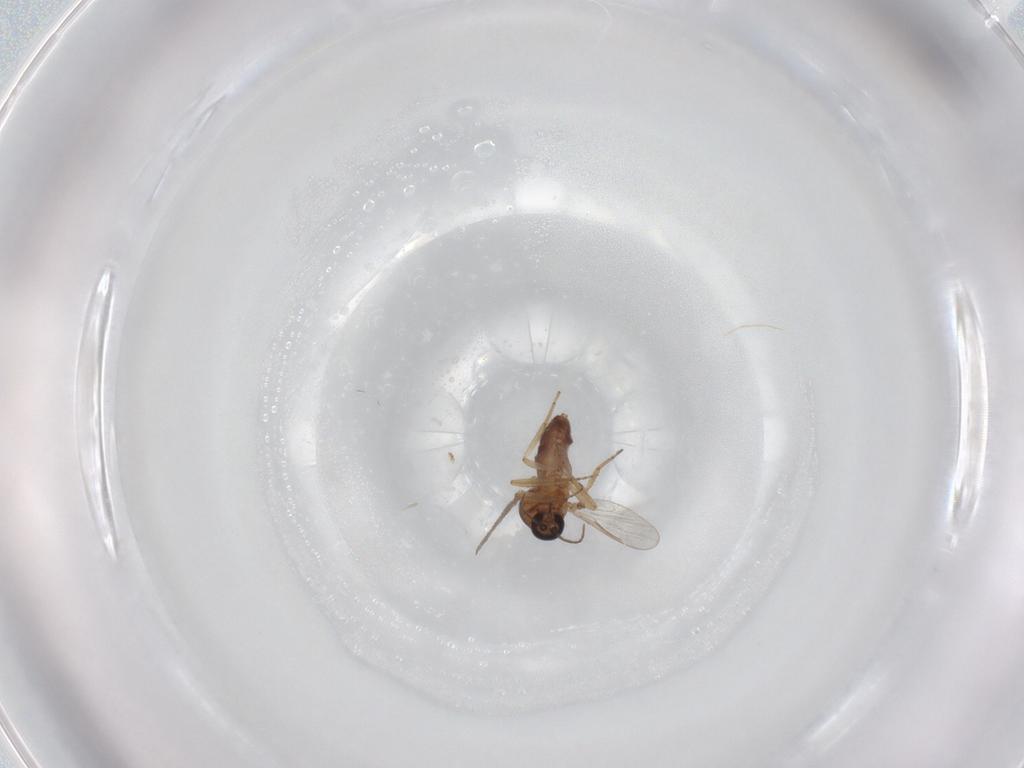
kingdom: Animalia
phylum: Arthropoda
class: Insecta
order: Diptera
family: Ceratopogonidae
